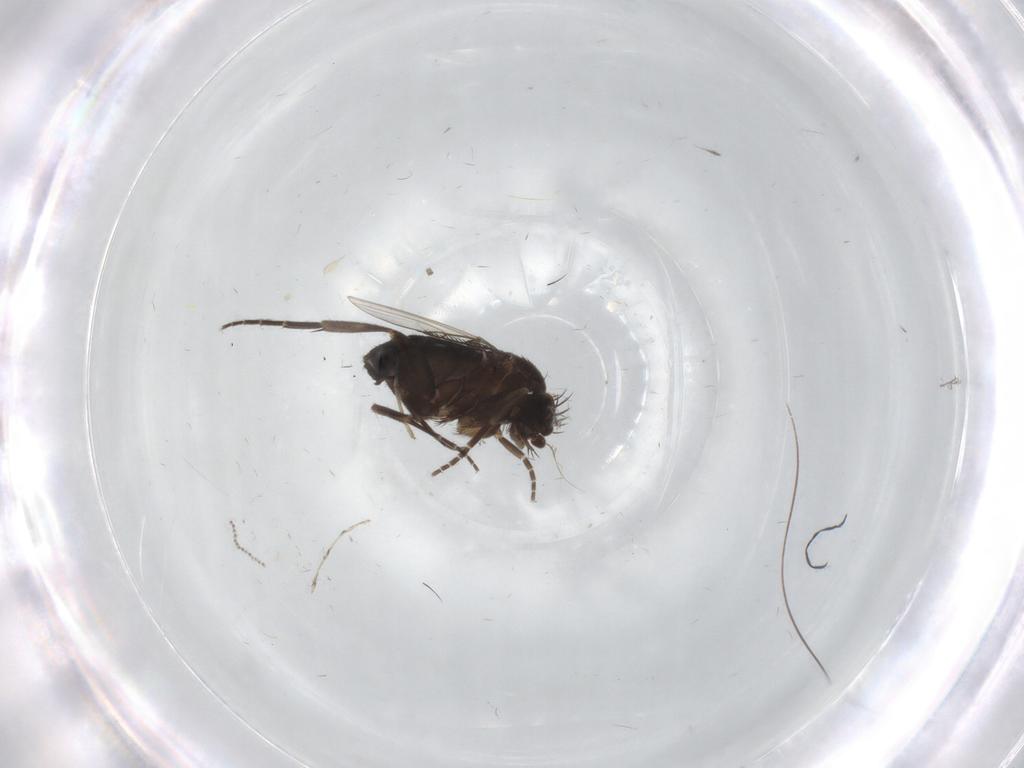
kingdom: Animalia
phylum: Arthropoda
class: Insecta
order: Diptera
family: Phoridae
